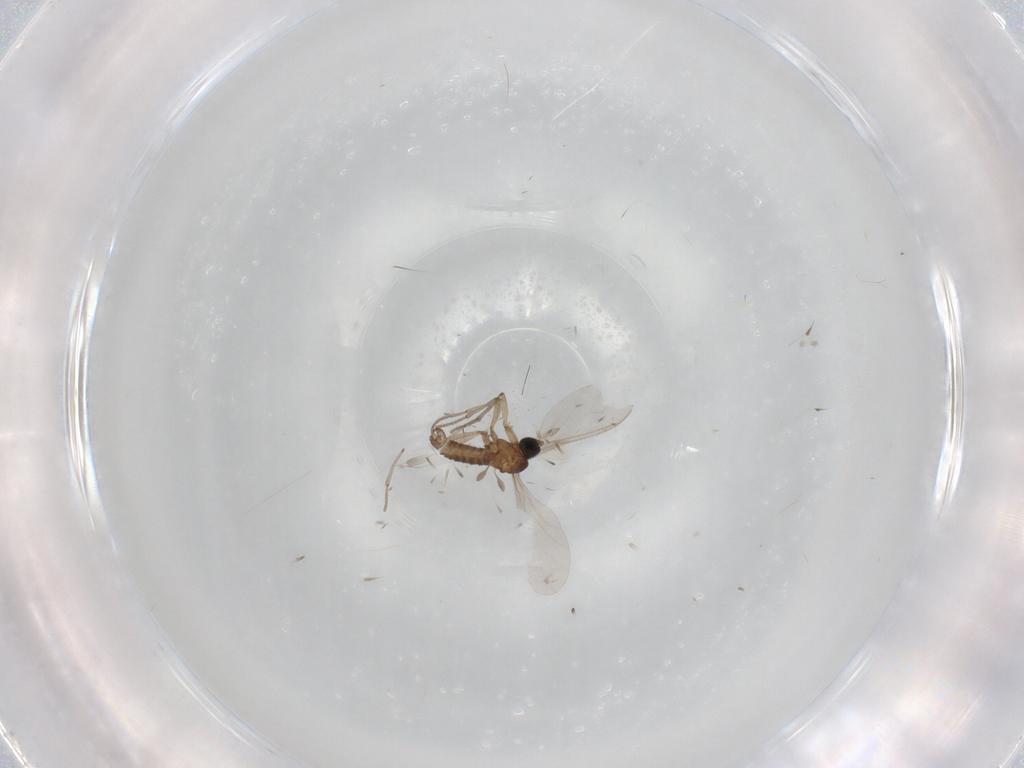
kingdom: Animalia
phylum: Arthropoda
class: Insecta
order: Diptera
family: Sciaridae
